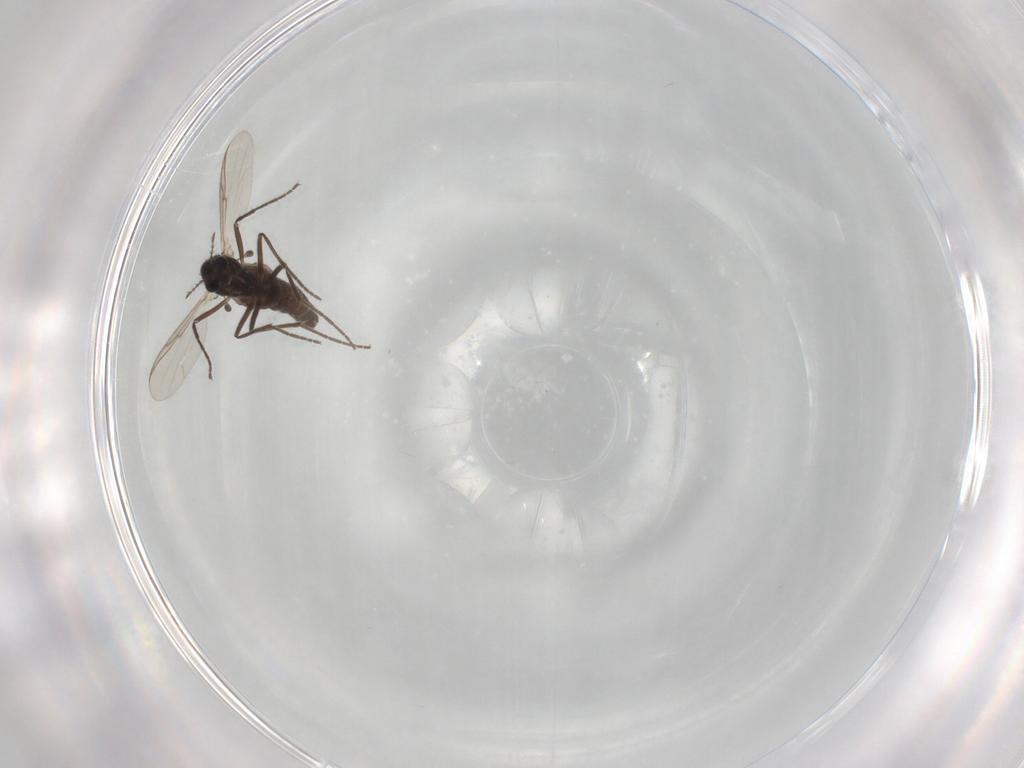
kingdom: Animalia
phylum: Arthropoda
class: Insecta
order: Diptera
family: Chironomidae
